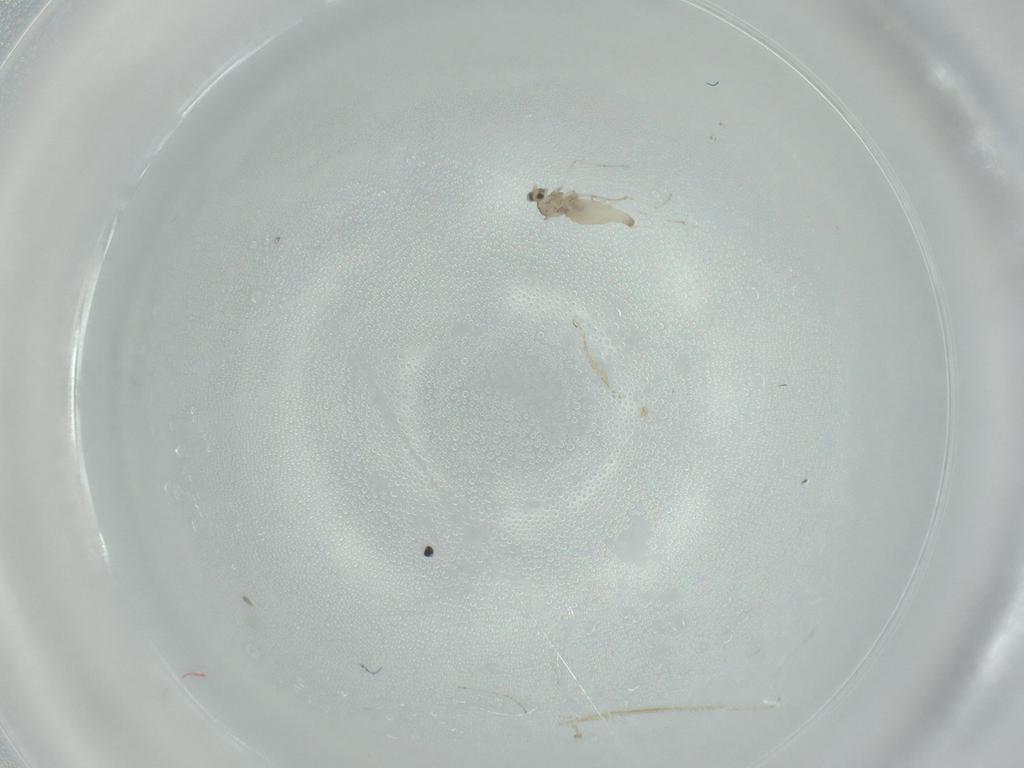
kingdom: Animalia
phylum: Arthropoda
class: Insecta
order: Diptera
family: Cecidomyiidae
